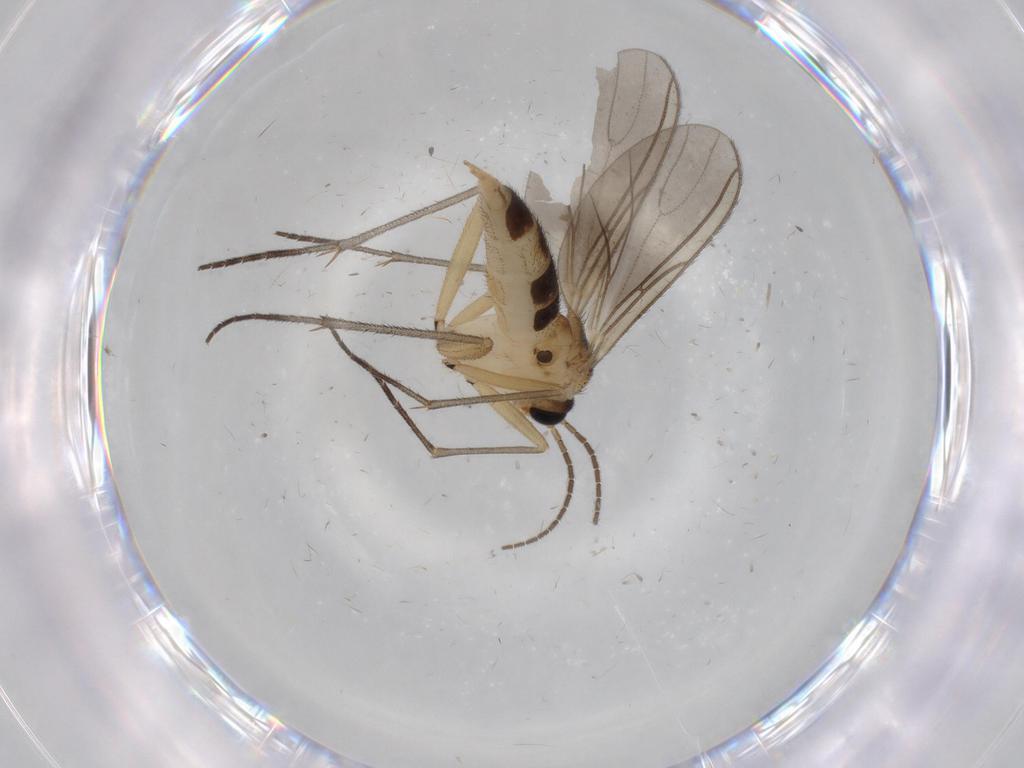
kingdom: Animalia
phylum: Arthropoda
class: Insecta
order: Diptera
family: Sciaridae
